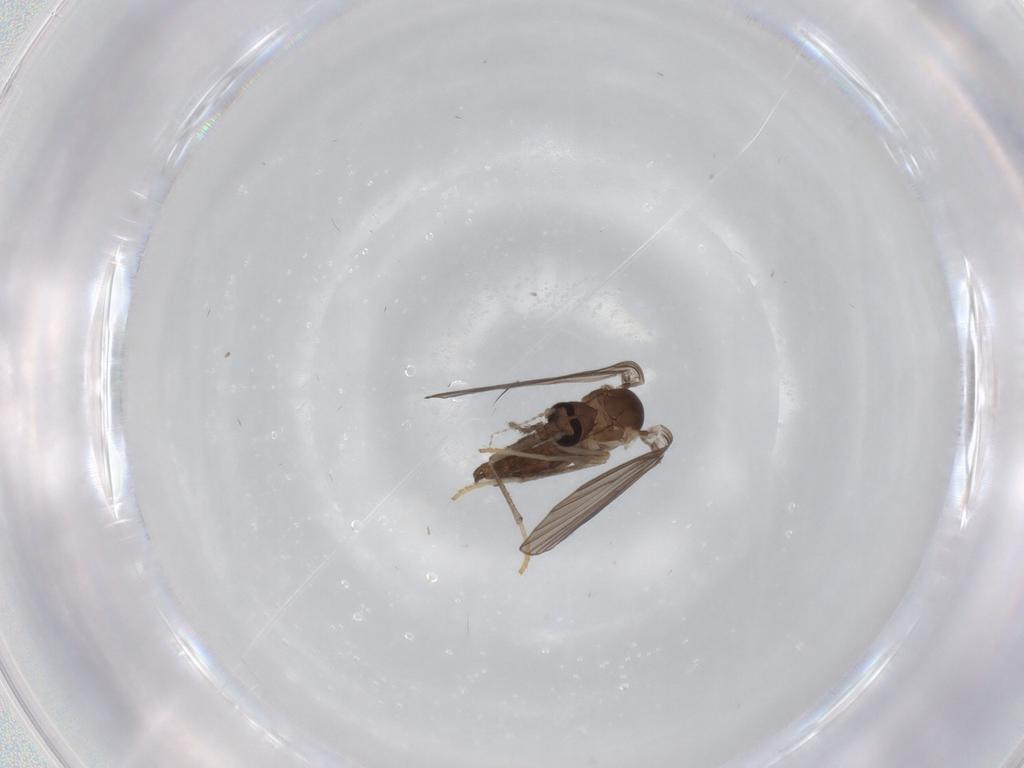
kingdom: Animalia
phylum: Arthropoda
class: Insecta
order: Diptera
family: Psychodidae
